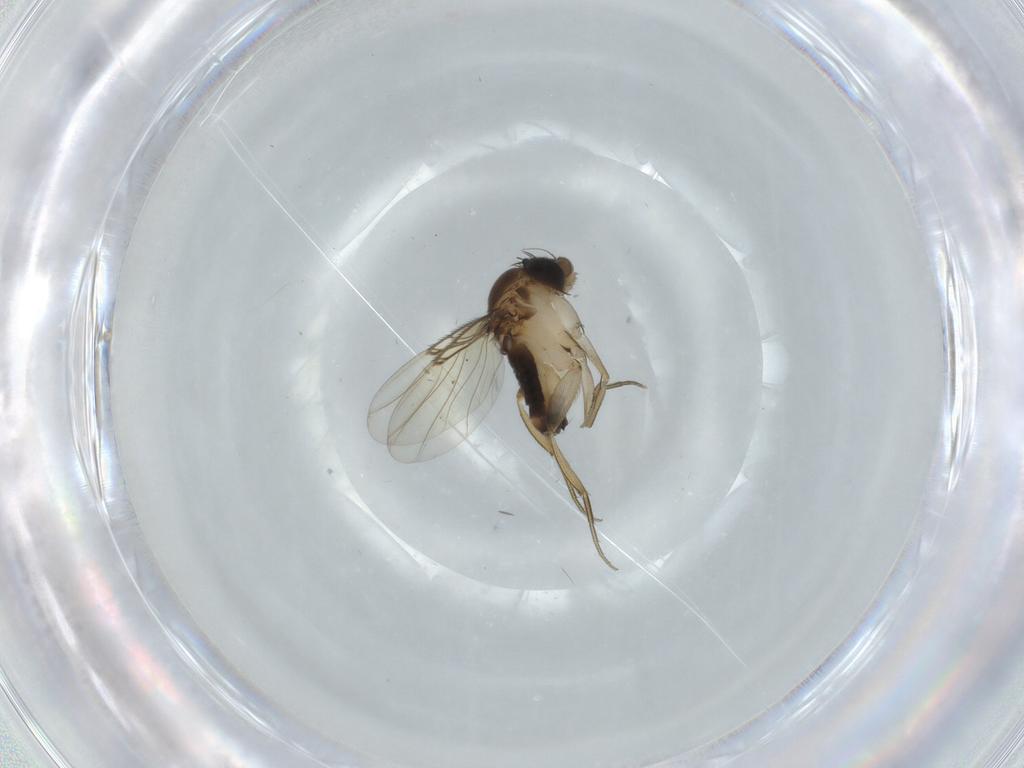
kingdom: Animalia
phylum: Arthropoda
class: Insecta
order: Diptera
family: Phoridae
